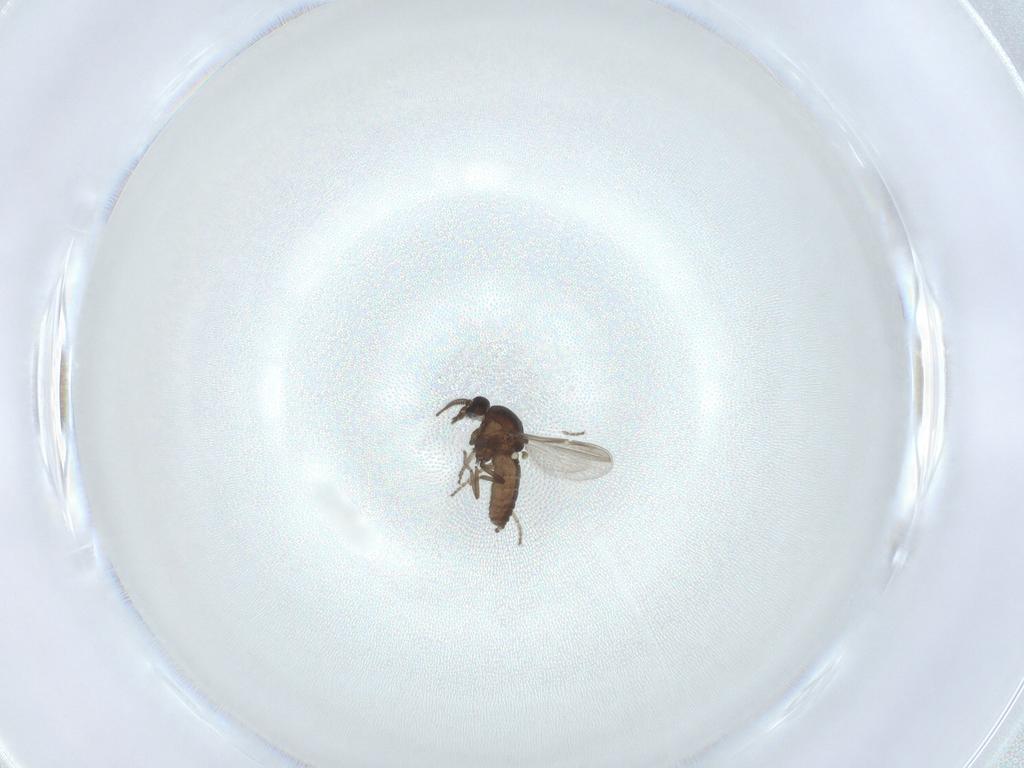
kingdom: Animalia
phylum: Arthropoda
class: Insecta
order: Diptera
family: Ceratopogonidae
